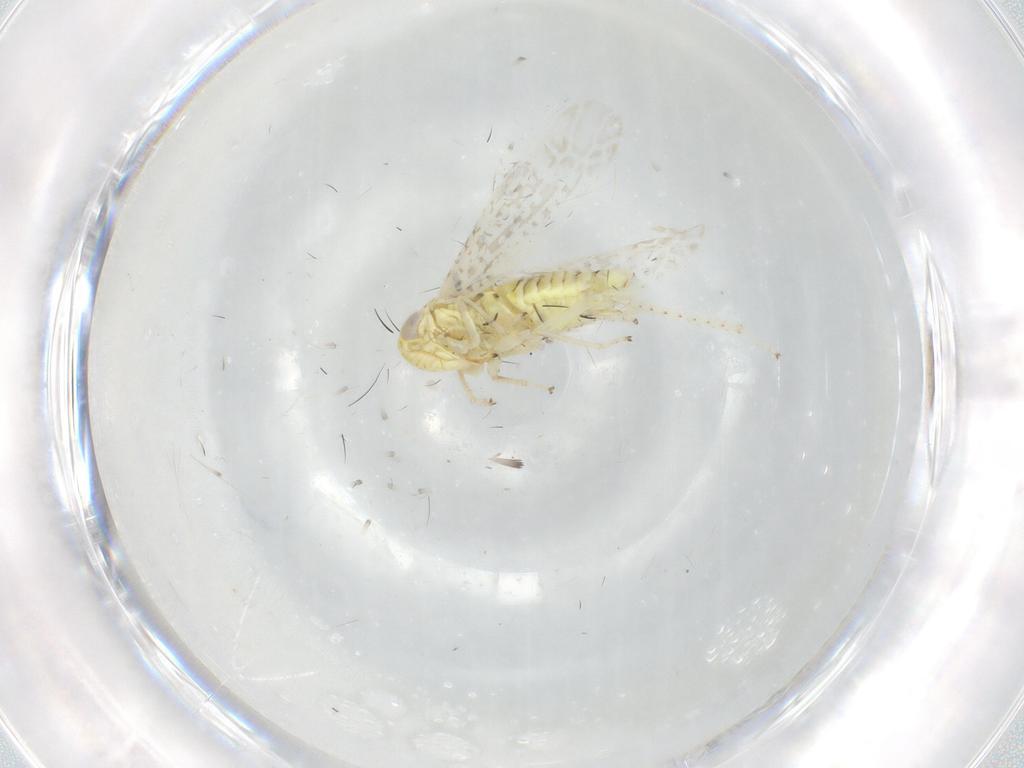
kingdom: Animalia
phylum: Arthropoda
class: Insecta
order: Hemiptera
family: Cicadellidae
